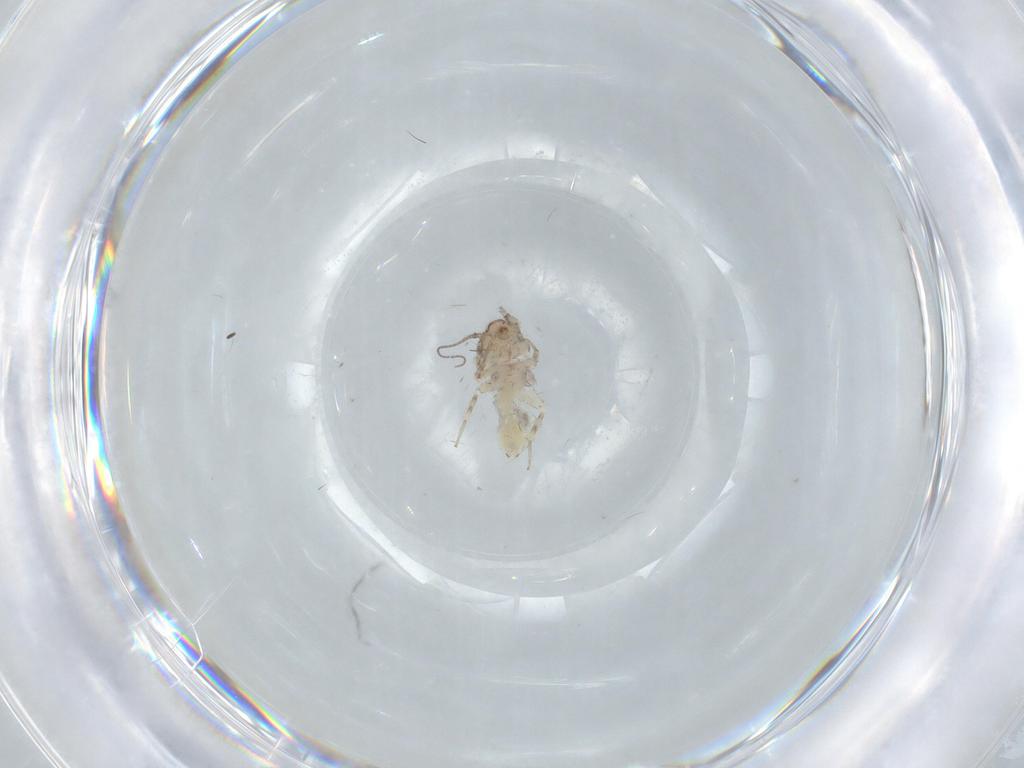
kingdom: Animalia
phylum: Arthropoda
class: Insecta
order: Psocodea
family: Lepidopsocidae
